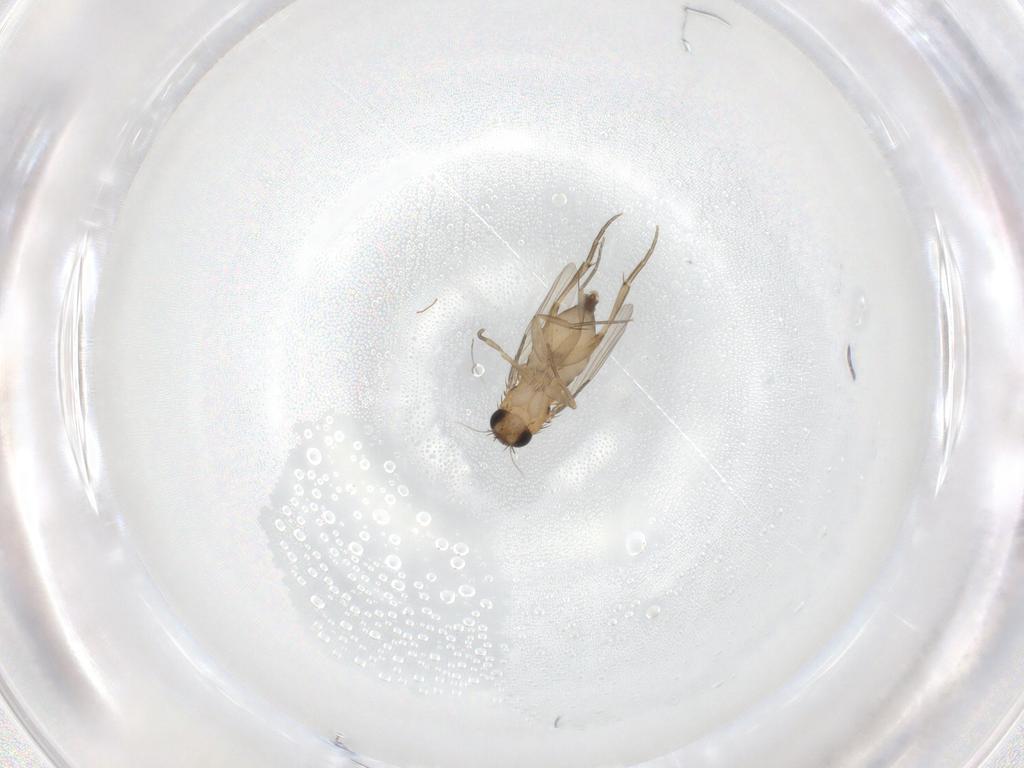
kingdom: Animalia
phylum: Arthropoda
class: Insecta
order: Diptera
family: Phoridae
